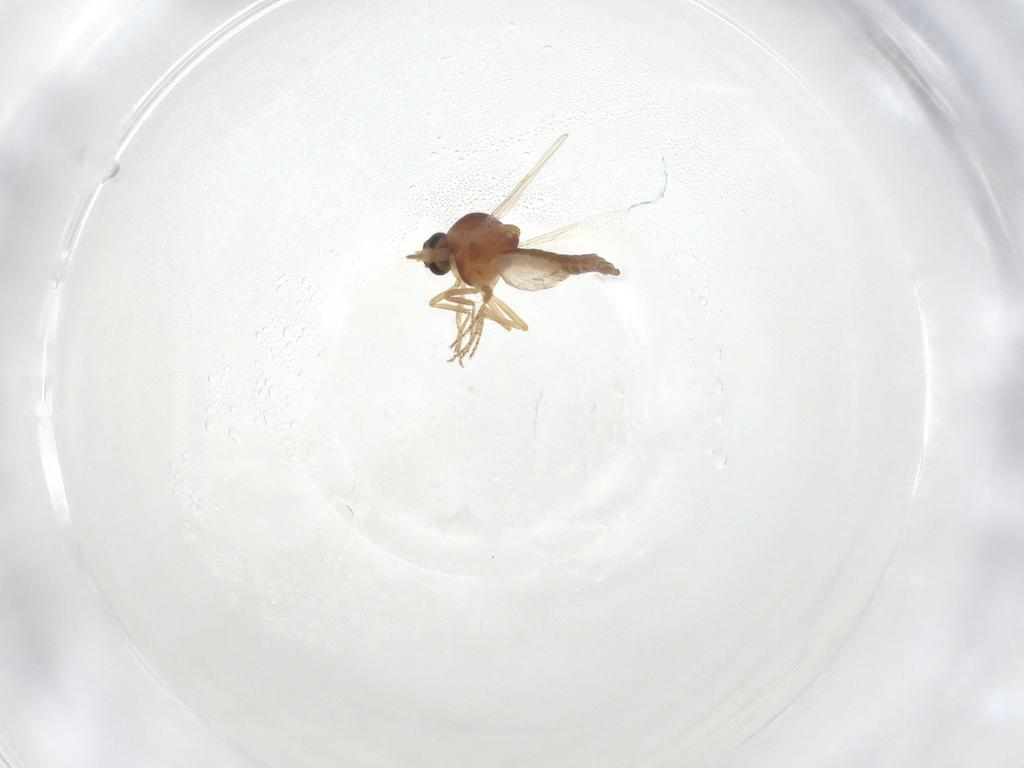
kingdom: Animalia
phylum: Arthropoda
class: Insecta
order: Diptera
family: Ceratopogonidae
